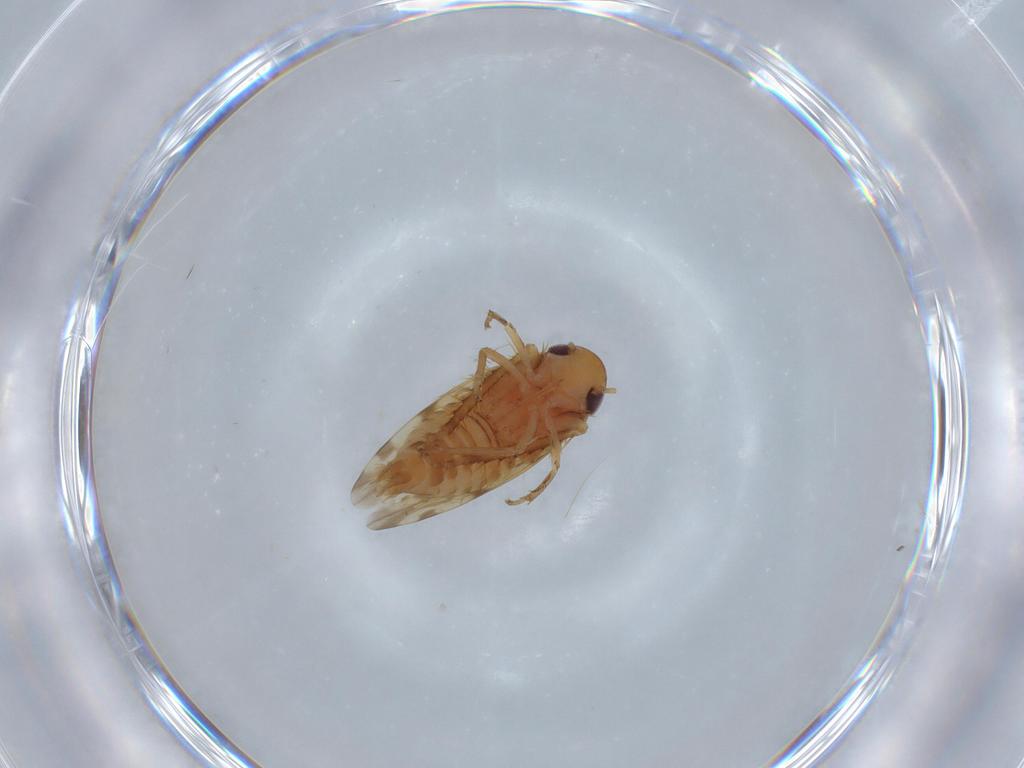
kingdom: Animalia
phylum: Arthropoda
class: Insecta
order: Hemiptera
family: Cicadellidae
